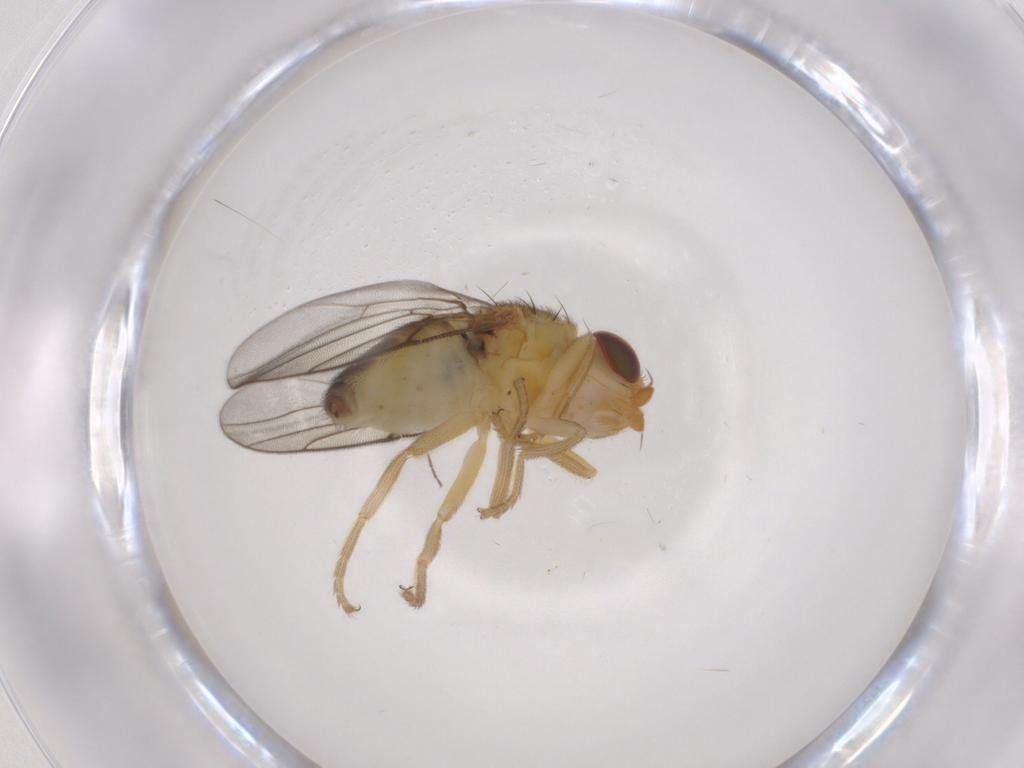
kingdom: Animalia
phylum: Arthropoda
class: Insecta
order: Diptera
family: Chloropidae
